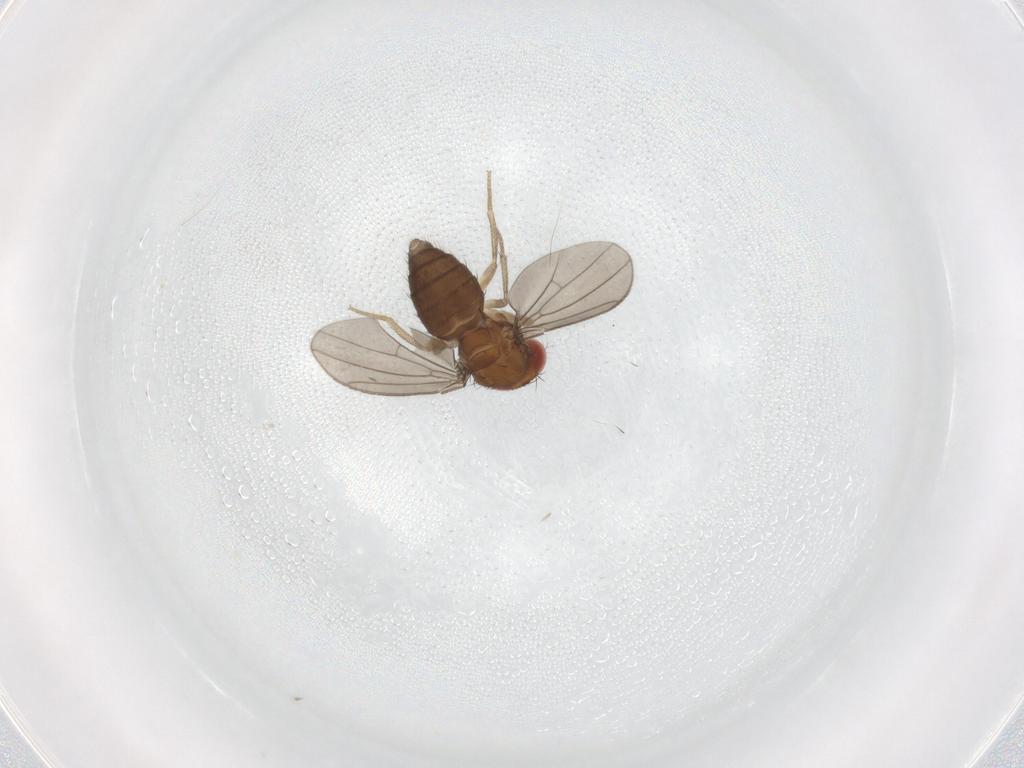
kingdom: Animalia
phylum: Arthropoda
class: Insecta
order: Diptera
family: Drosophilidae
